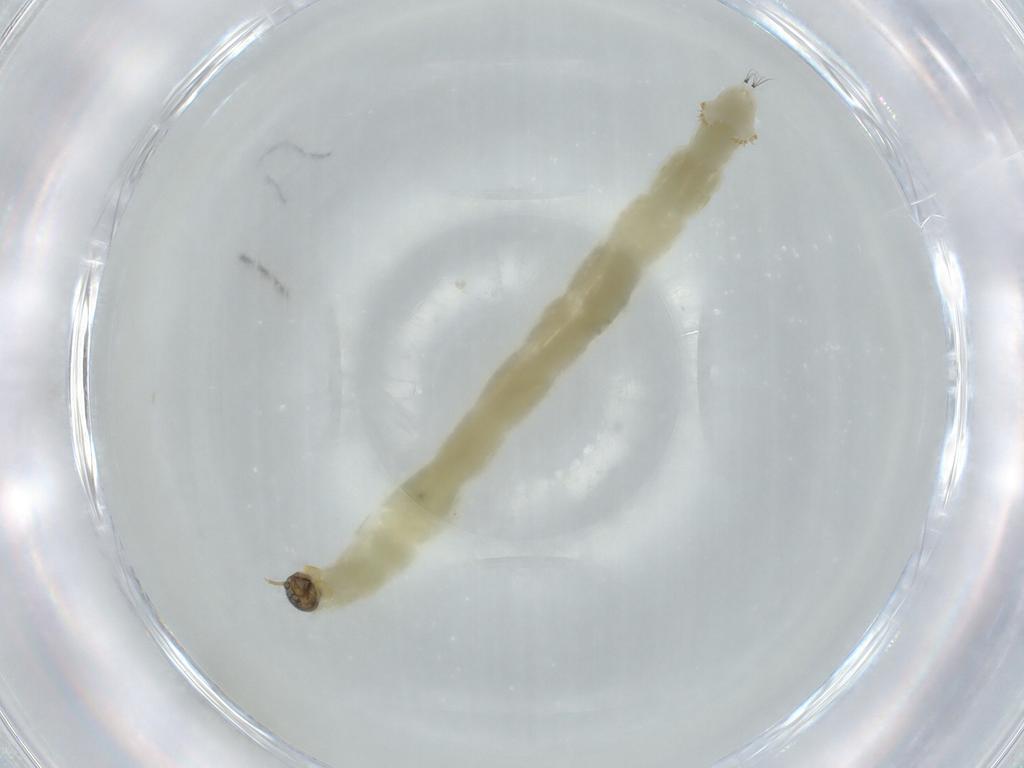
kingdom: Animalia
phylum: Arthropoda
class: Insecta
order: Diptera
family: Chironomidae
